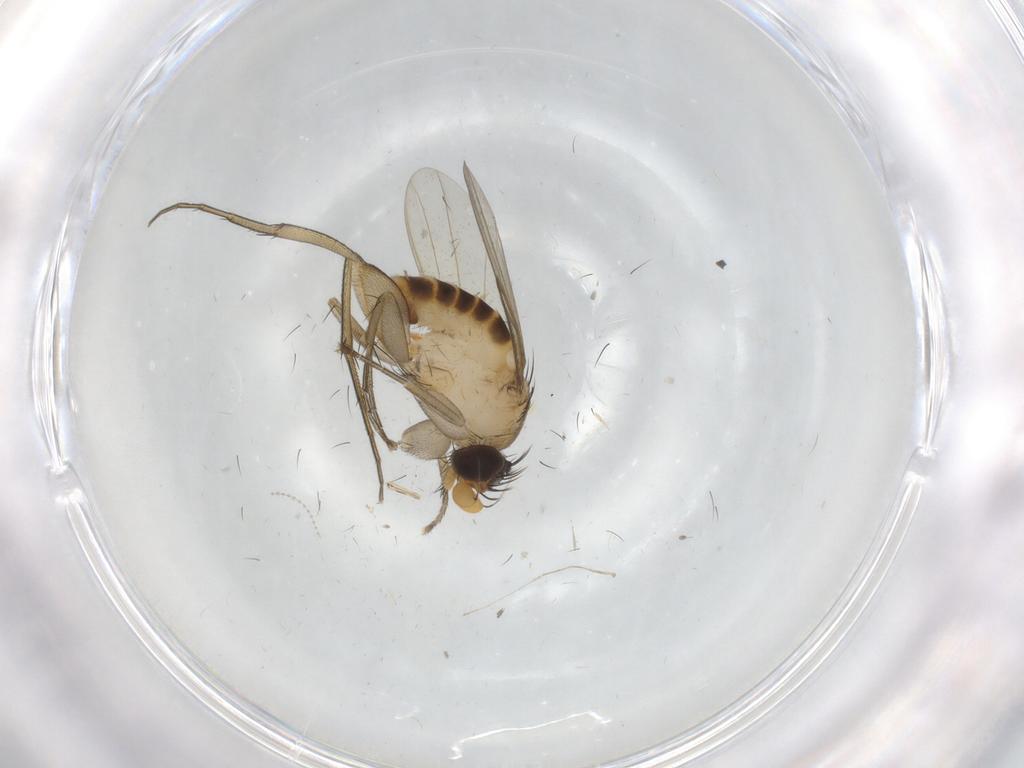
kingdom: Animalia
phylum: Arthropoda
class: Insecta
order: Diptera
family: Phoridae
